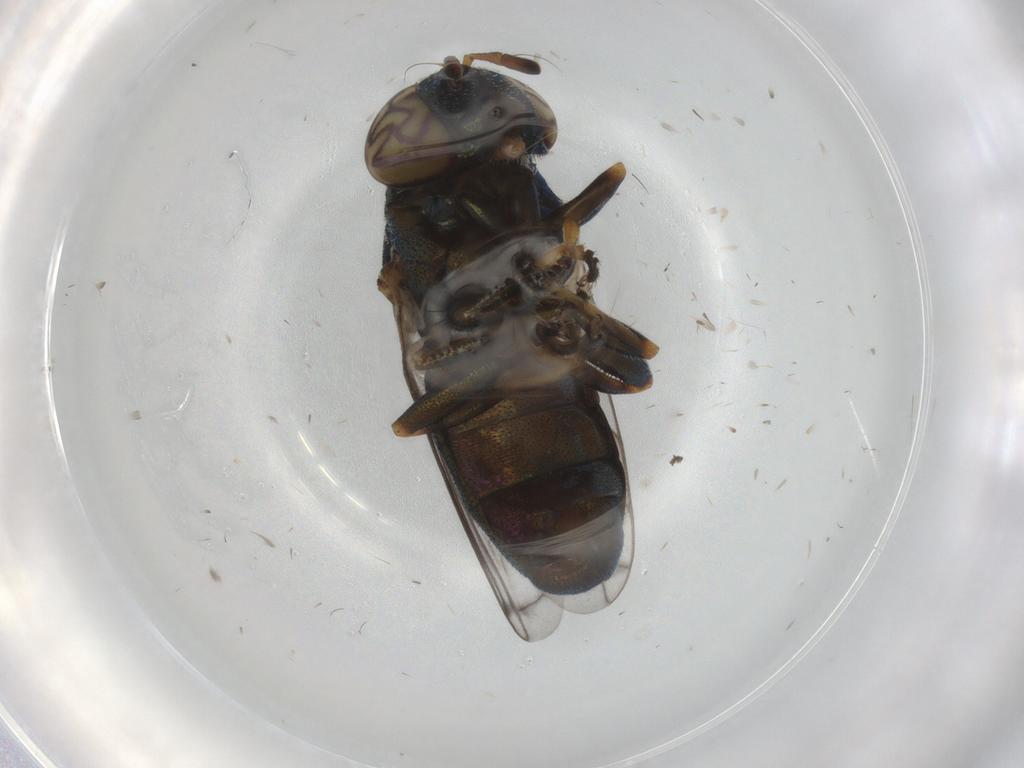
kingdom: Animalia
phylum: Arthropoda
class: Insecta
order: Diptera
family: Syrphidae
